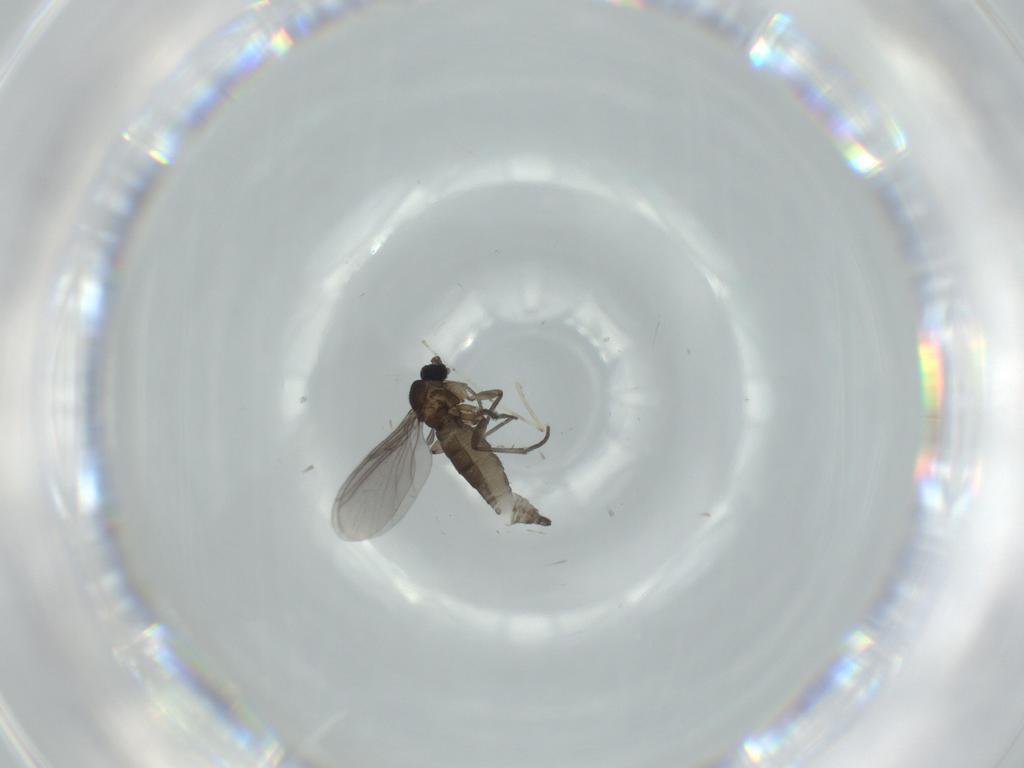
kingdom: Animalia
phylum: Arthropoda
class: Insecta
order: Diptera
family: Cecidomyiidae
